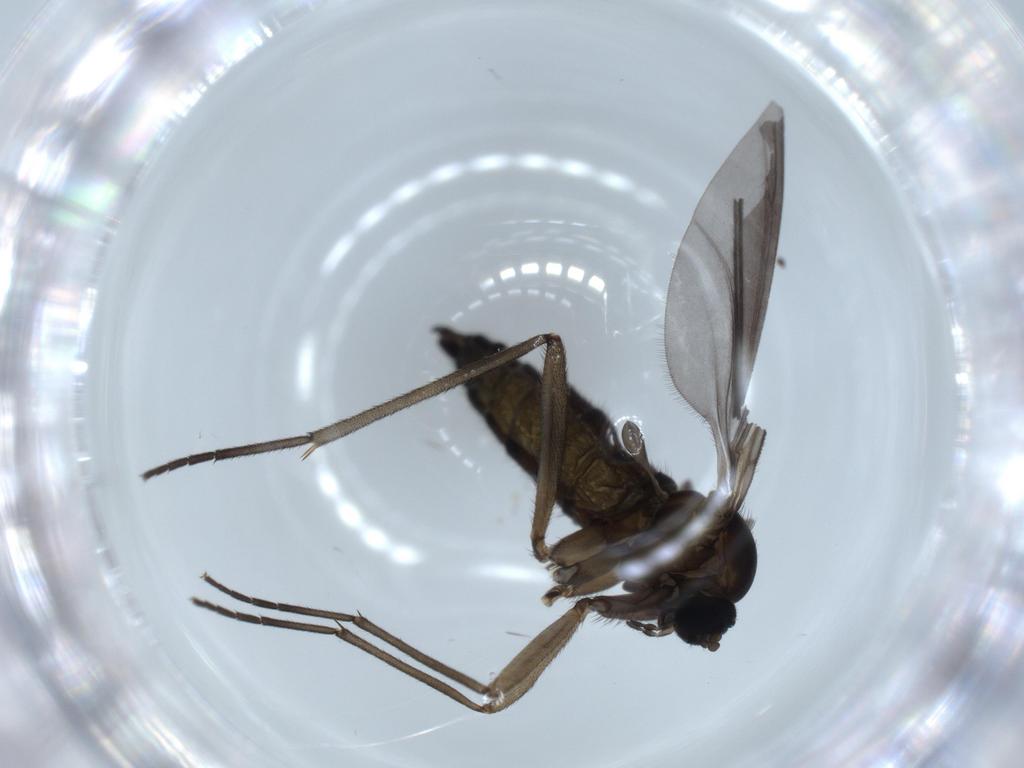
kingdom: Animalia
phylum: Arthropoda
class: Insecta
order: Diptera
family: Sciaridae
